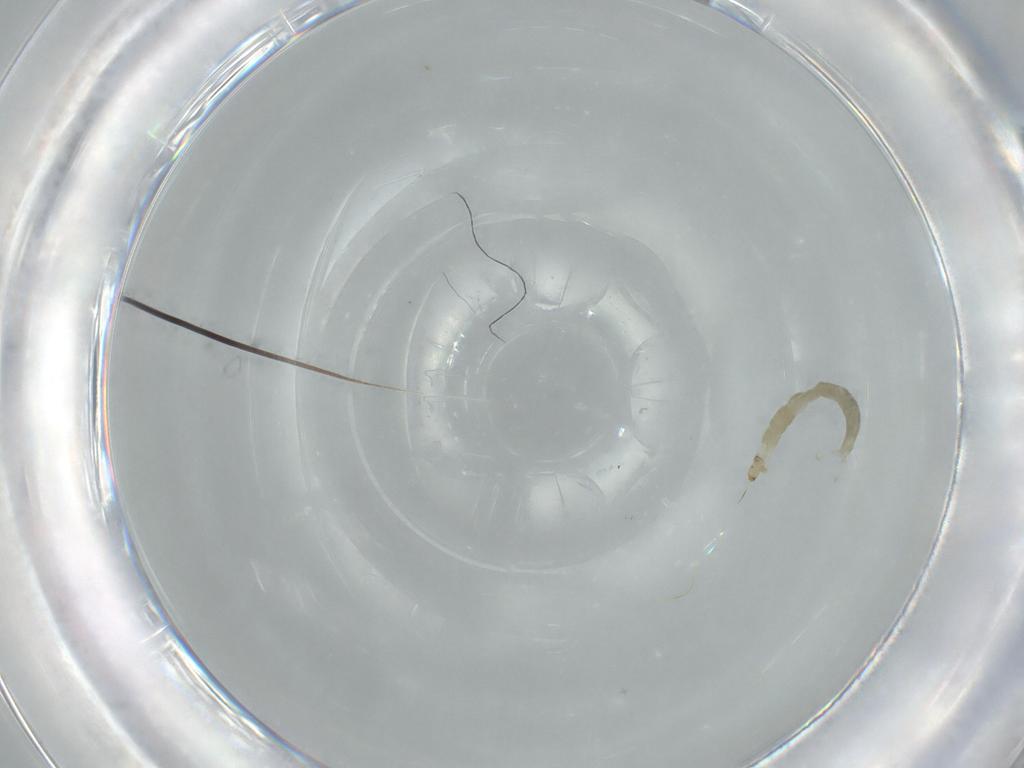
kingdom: Animalia
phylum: Arthropoda
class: Insecta
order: Diptera
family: Chironomidae
